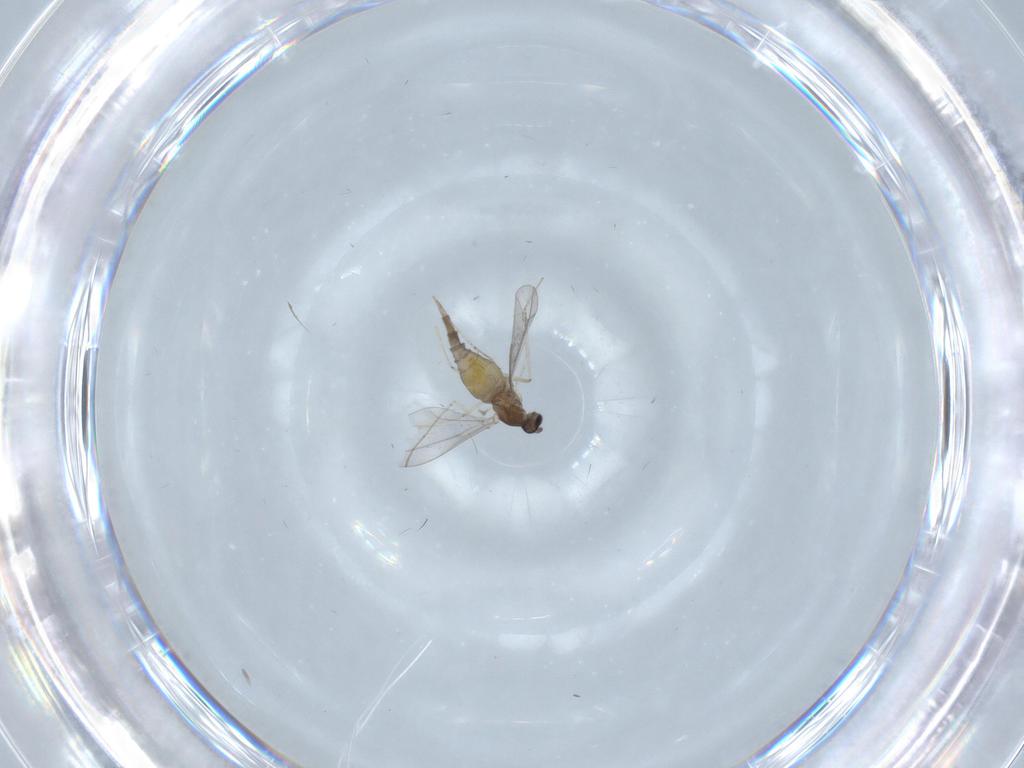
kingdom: Animalia
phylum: Arthropoda
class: Insecta
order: Diptera
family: Cecidomyiidae
